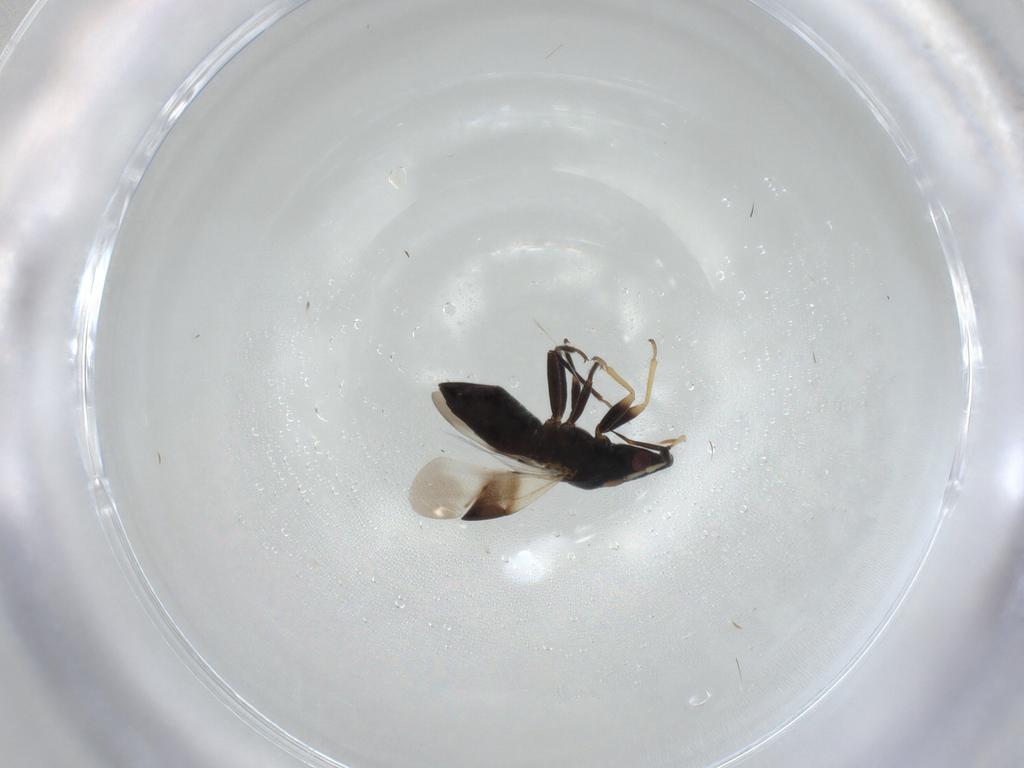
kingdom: Animalia
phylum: Arthropoda
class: Insecta
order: Hemiptera
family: Anthocoridae
